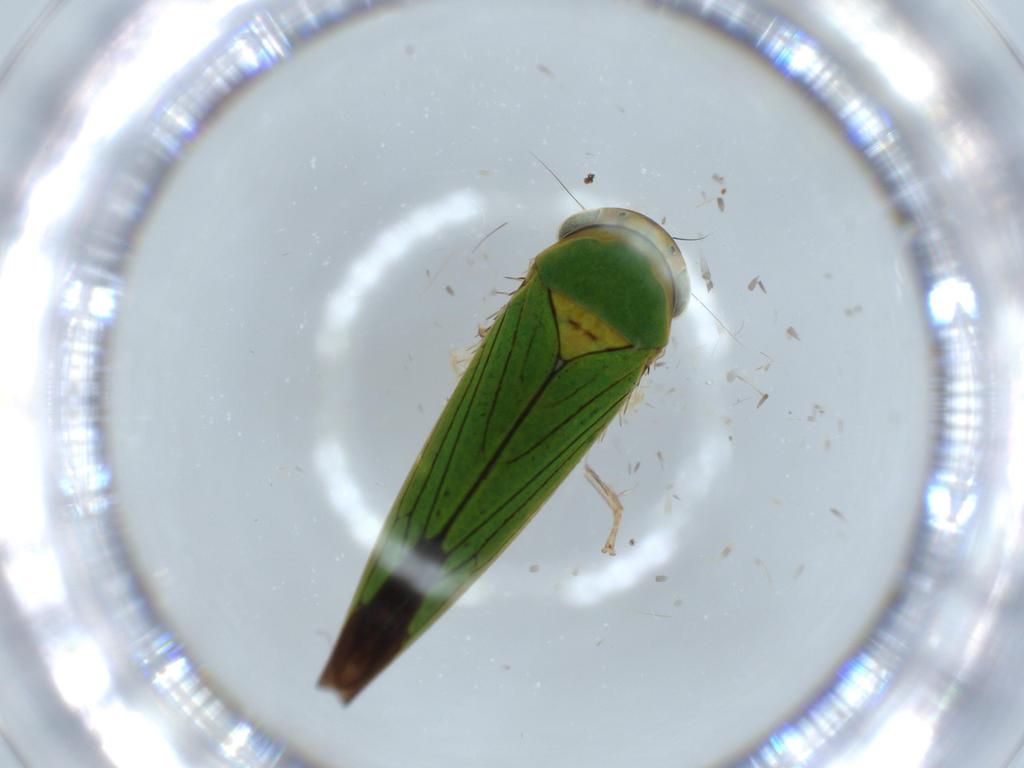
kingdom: Animalia
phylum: Arthropoda
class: Insecta
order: Hemiptera
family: Cicadellidae
